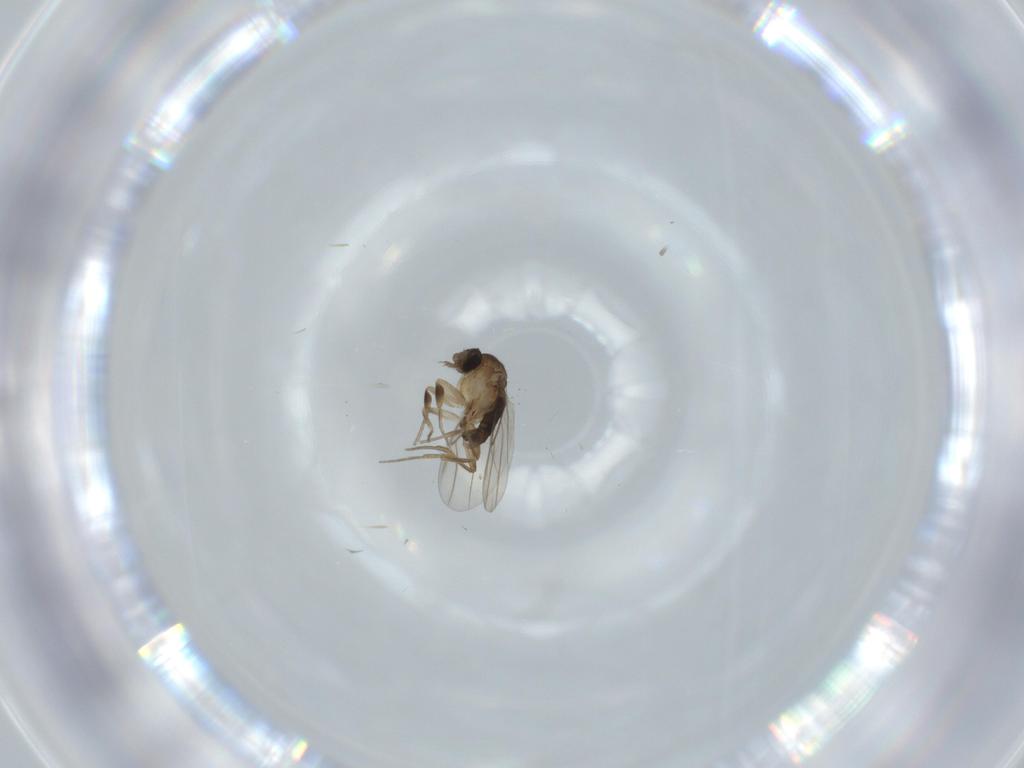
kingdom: Animalia
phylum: Arthropoda
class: Insecta
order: Diptera
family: Phoridae
